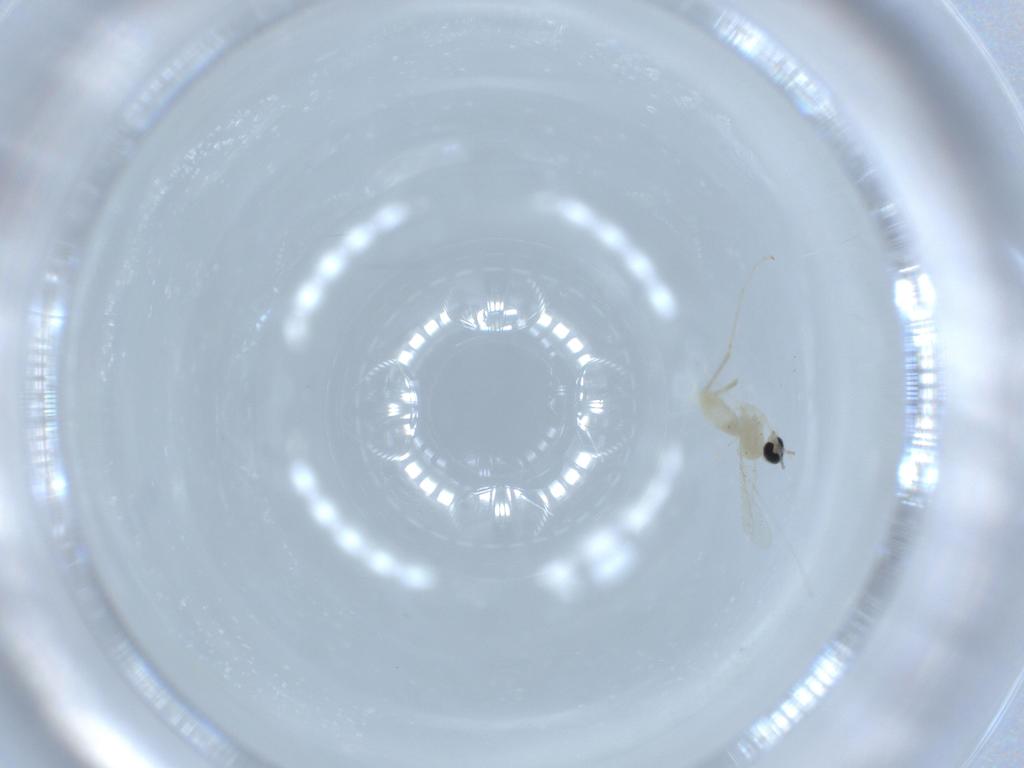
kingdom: Animalia
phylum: Arthropoda
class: Insecta
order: Diptera
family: Cecidomyiidae
